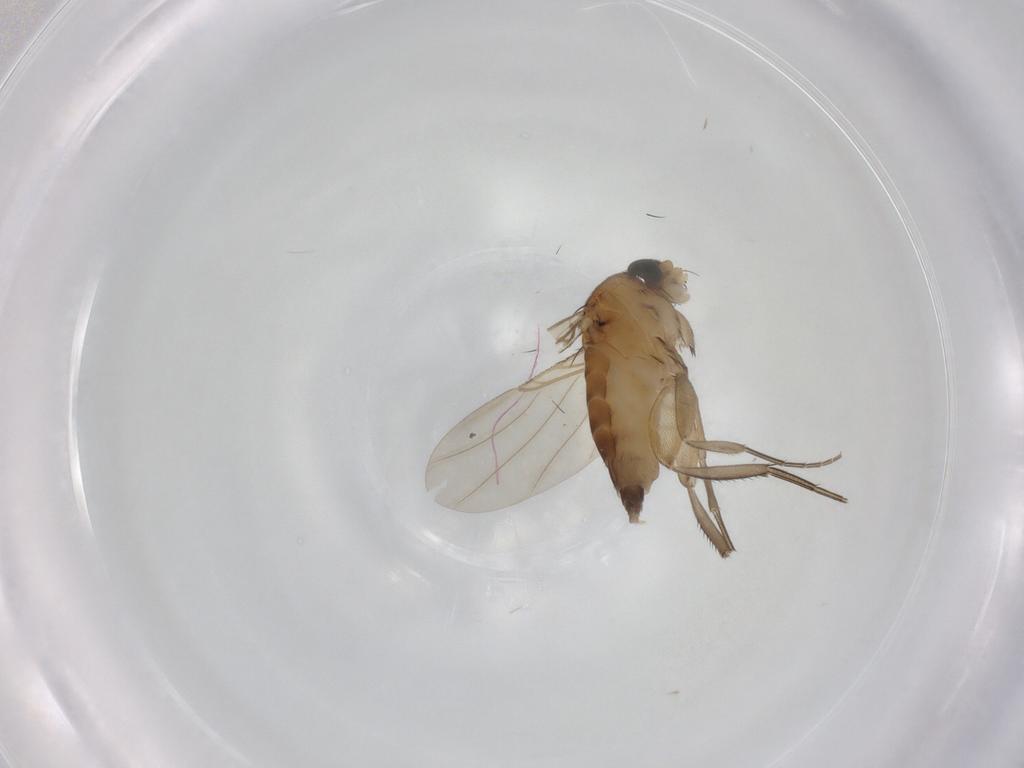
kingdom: Animalia
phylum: Arthropoda
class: Insecta
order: Diptera
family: Phoridae
